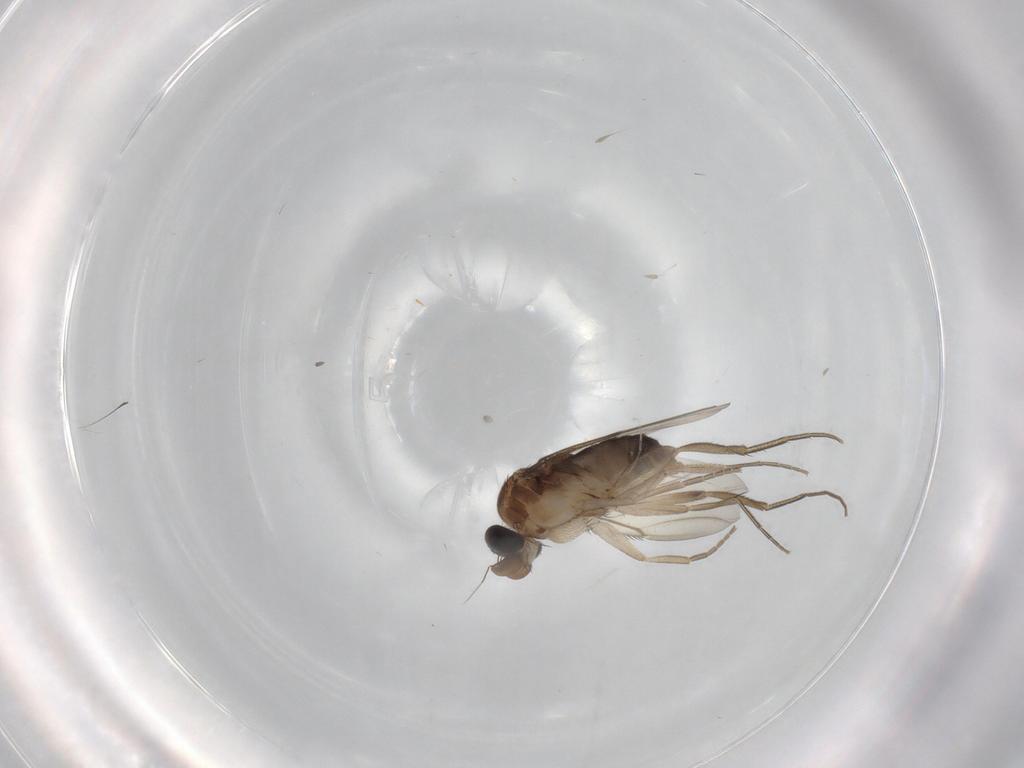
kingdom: Animalia
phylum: Arthropoda
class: Insecta
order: Diptera
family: Phoridae
